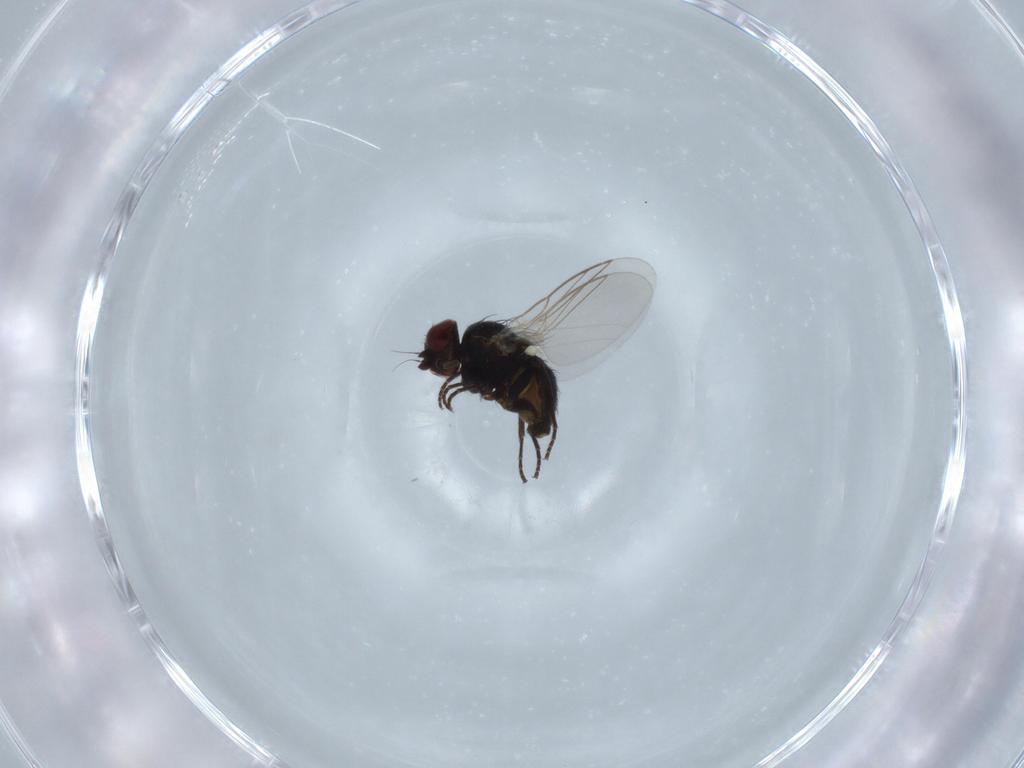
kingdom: Animalia
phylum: Arthropoda
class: Insecta
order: Diptera
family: Agromyzidae
